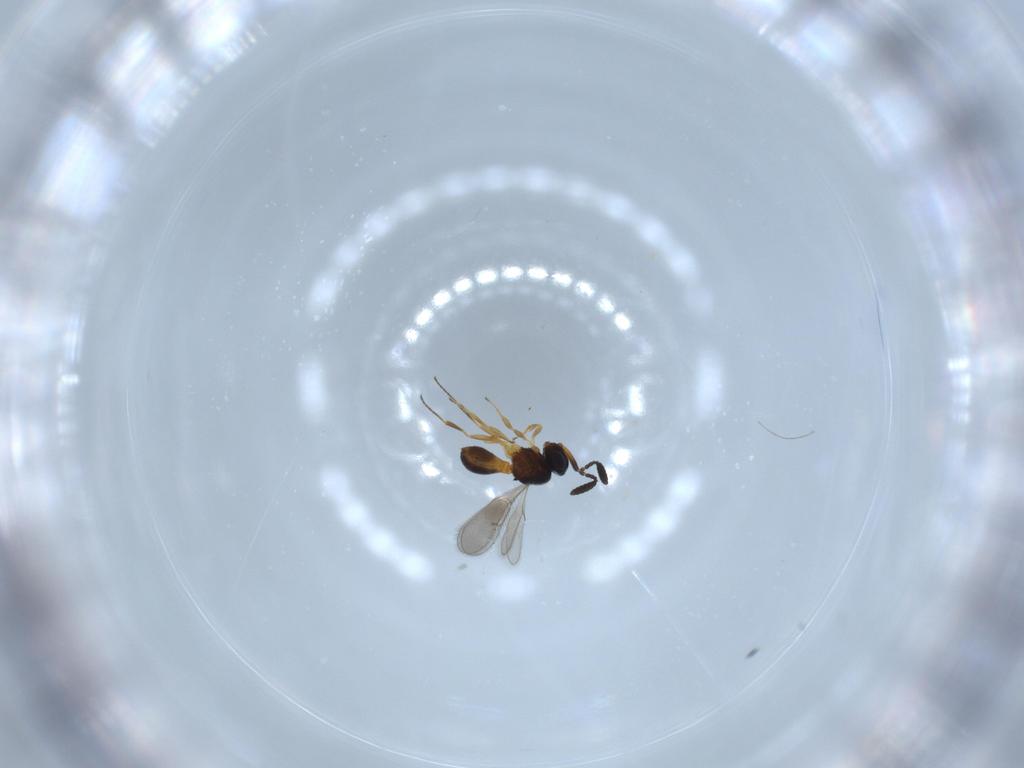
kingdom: Animalia
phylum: Arthropoda
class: Insecta
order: Hymenoptera
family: Scelionidae
